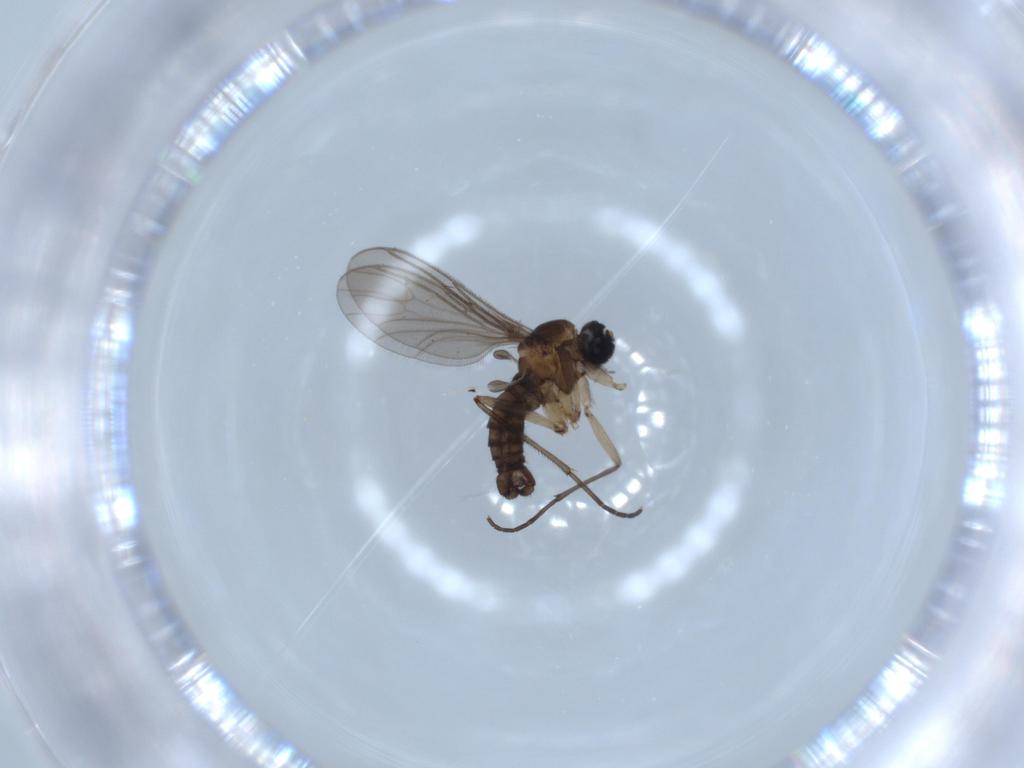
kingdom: Animalia
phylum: Arthropoda
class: Insecta
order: Diptera
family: Sciaridae
